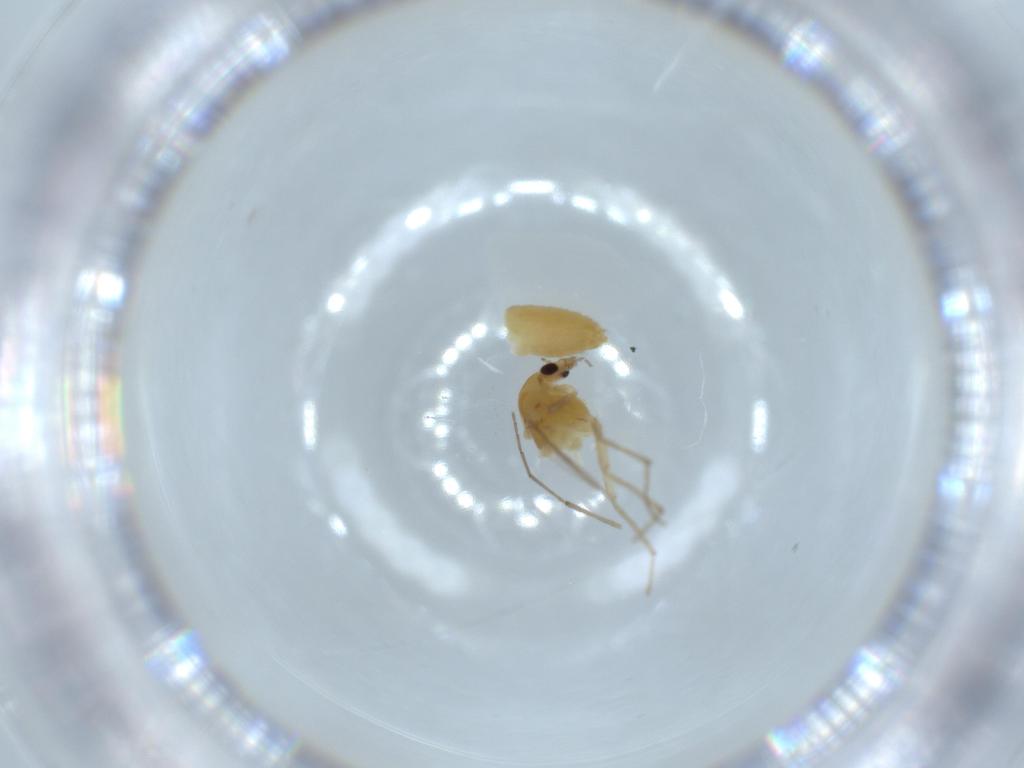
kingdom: Animalia
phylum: Arthropoda
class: Insecta
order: Diptera
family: Chironomidae
